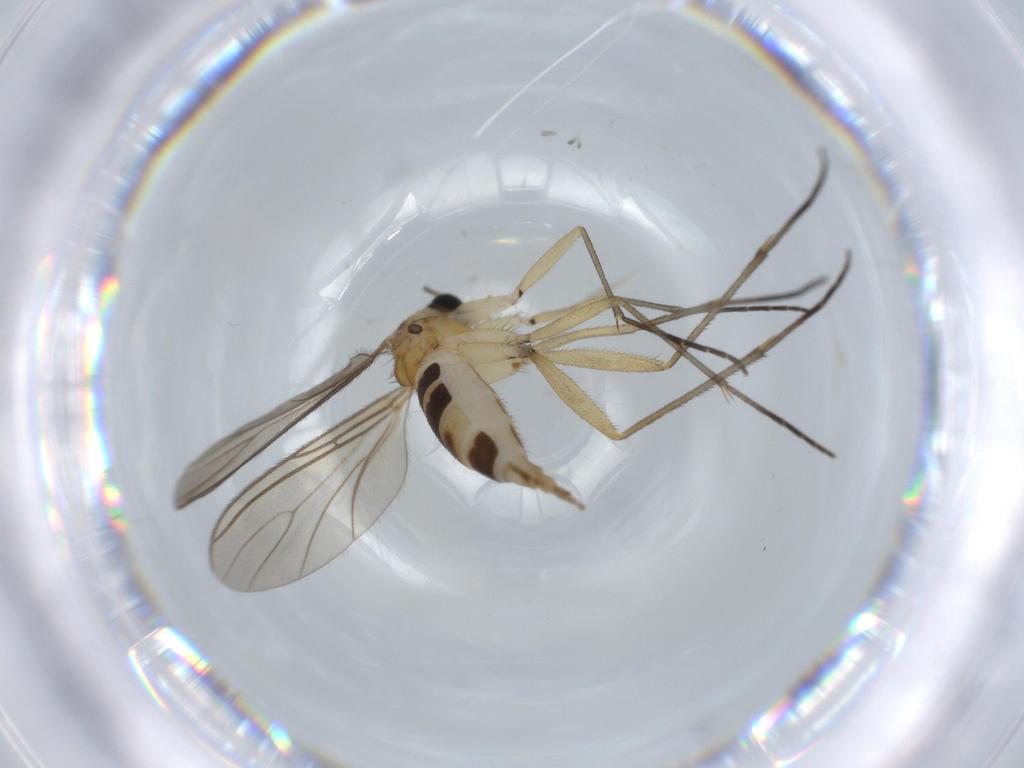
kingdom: Animalia
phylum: Arthropoda
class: Insecta
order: Diptera
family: Sciaridae
